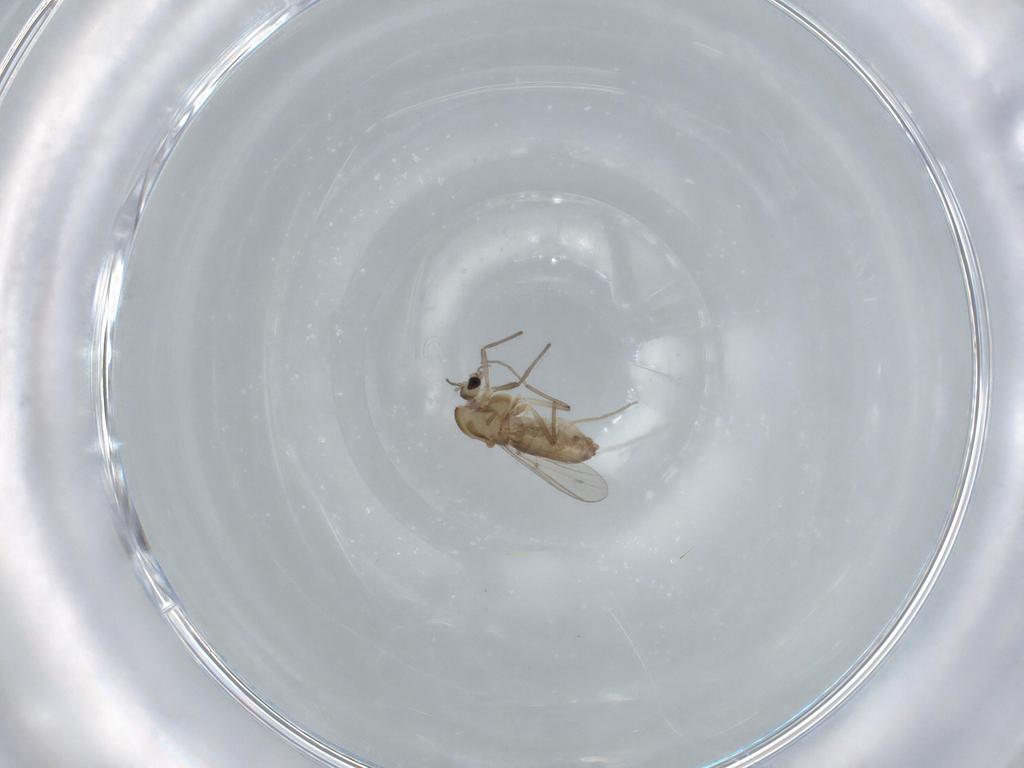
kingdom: Animalia
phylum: Arthropoda
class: Insecta
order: Diptera
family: Chironomidae
